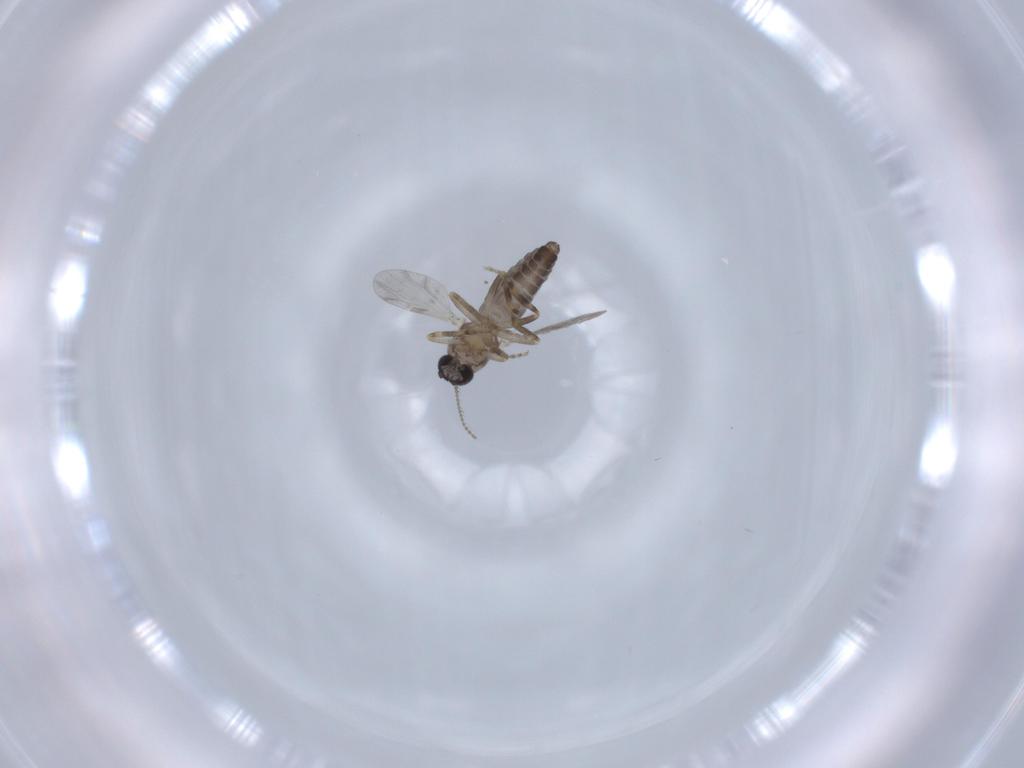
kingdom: Animalia
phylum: Arthropoda
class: Insecta
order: Diptera
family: Ceratopogonidae
